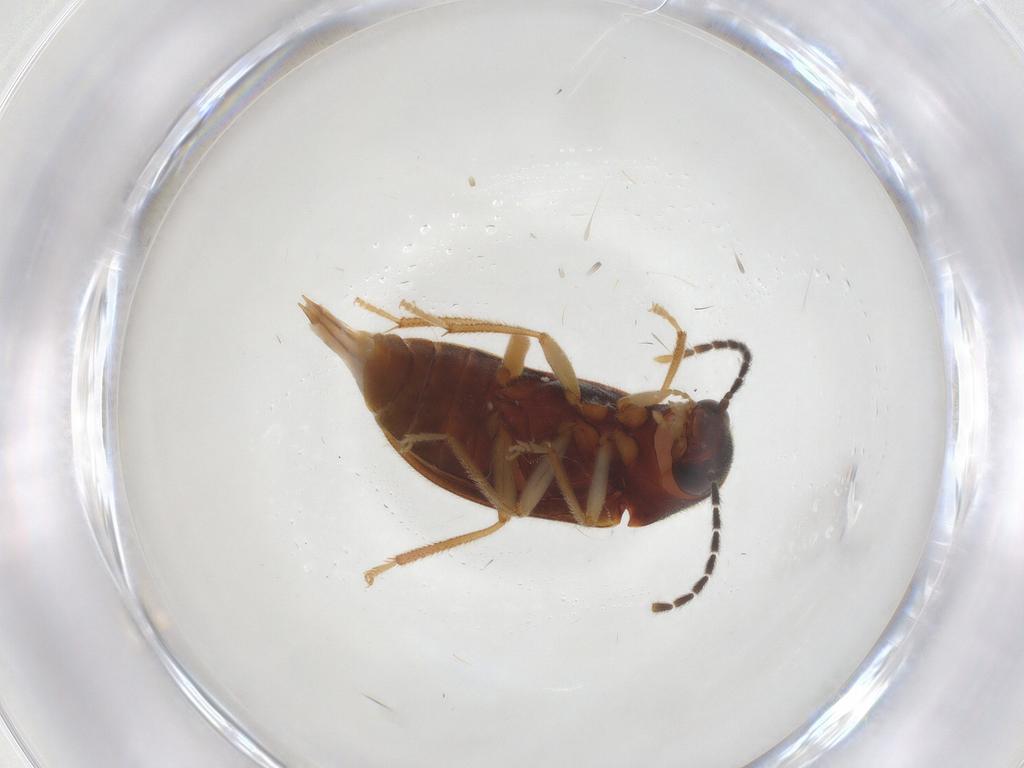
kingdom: Animalia
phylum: Arthropoda
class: Insecta
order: Coleoptera
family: Ptilodactylidae
